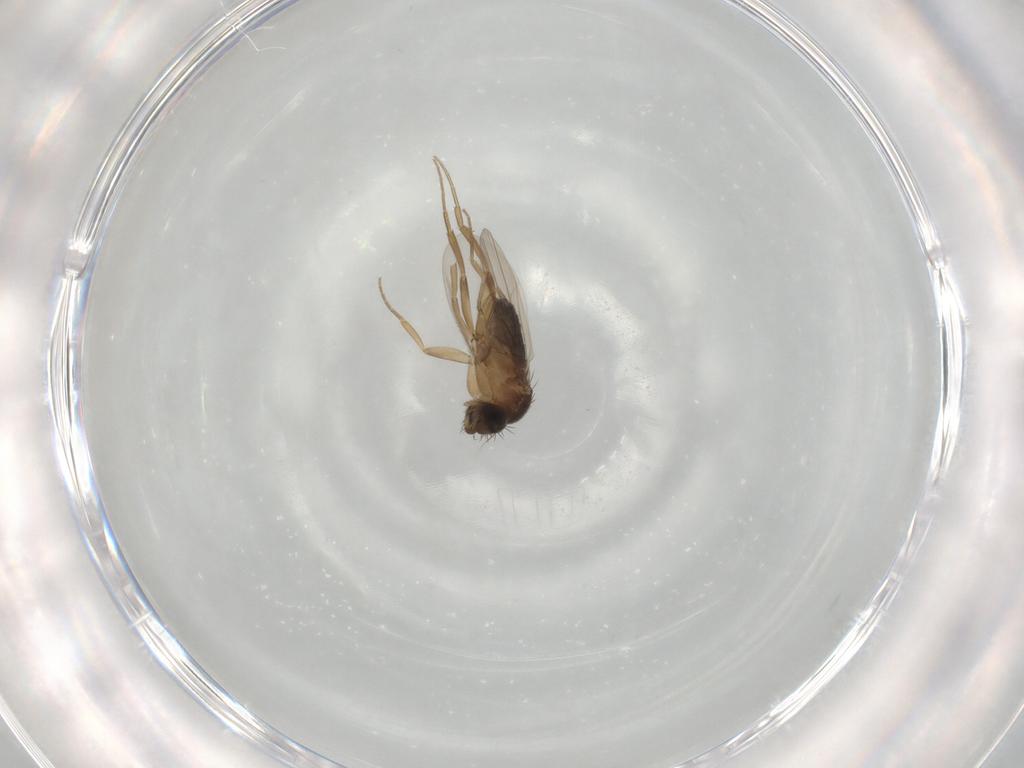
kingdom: Animalia
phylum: Arthropoda
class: Insecta
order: Diptera
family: Phoridae
